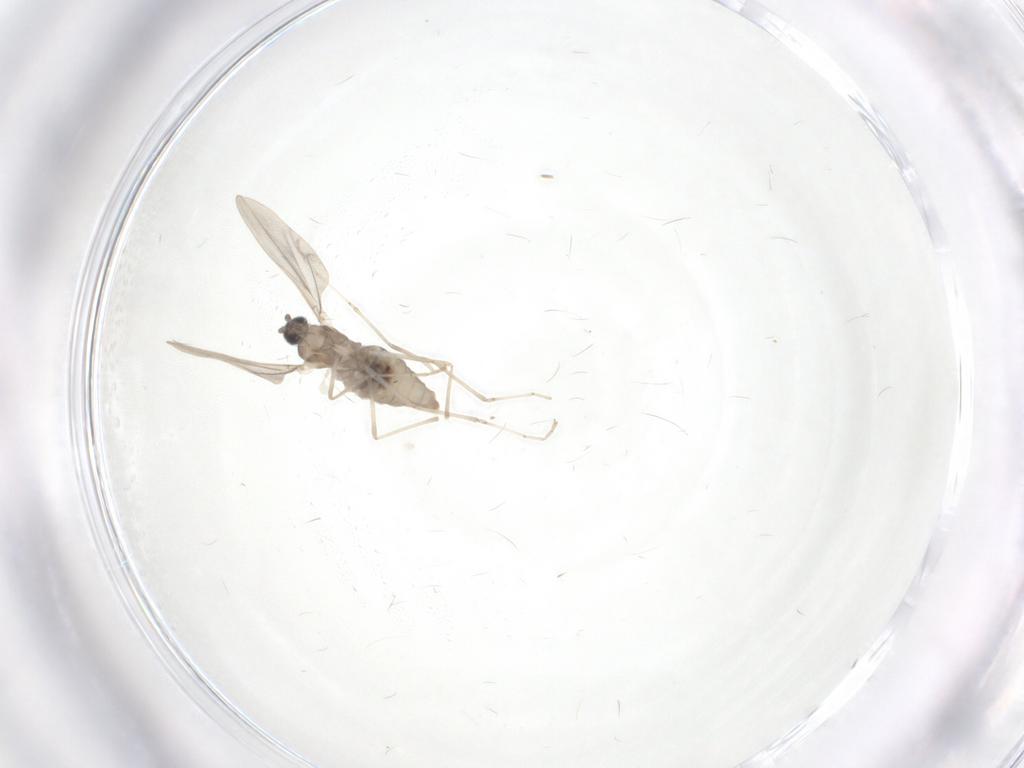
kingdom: Animalia
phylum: Arthropoda
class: Insecta
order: Diptera
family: Cecidomyiidae
